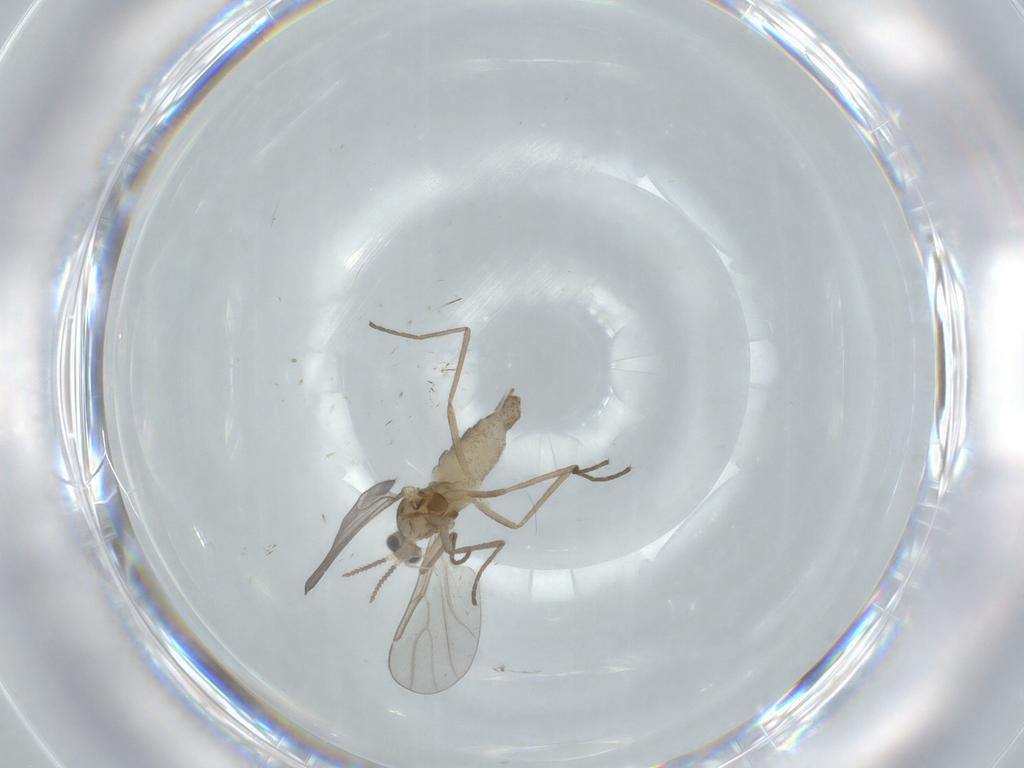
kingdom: Animalia
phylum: Arthropoda
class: Insecta
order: Diptera
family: Cecidomyiidae
